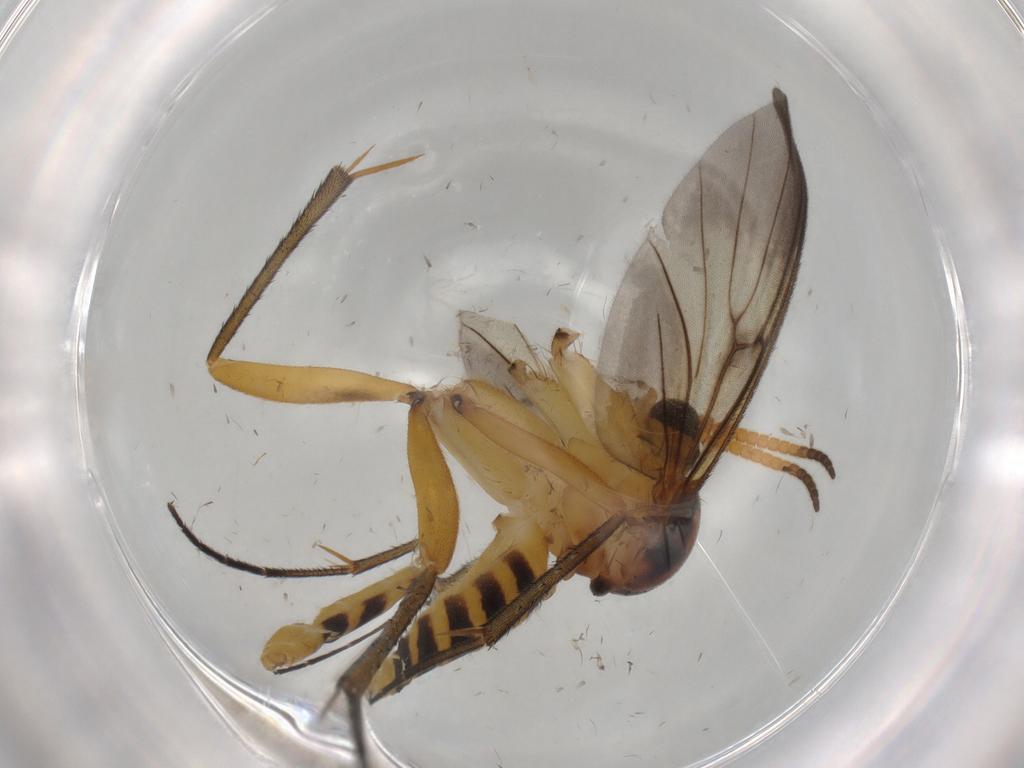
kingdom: Animalia
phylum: Arthropoda
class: Insecta
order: Diptera
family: Mycetophilidae
